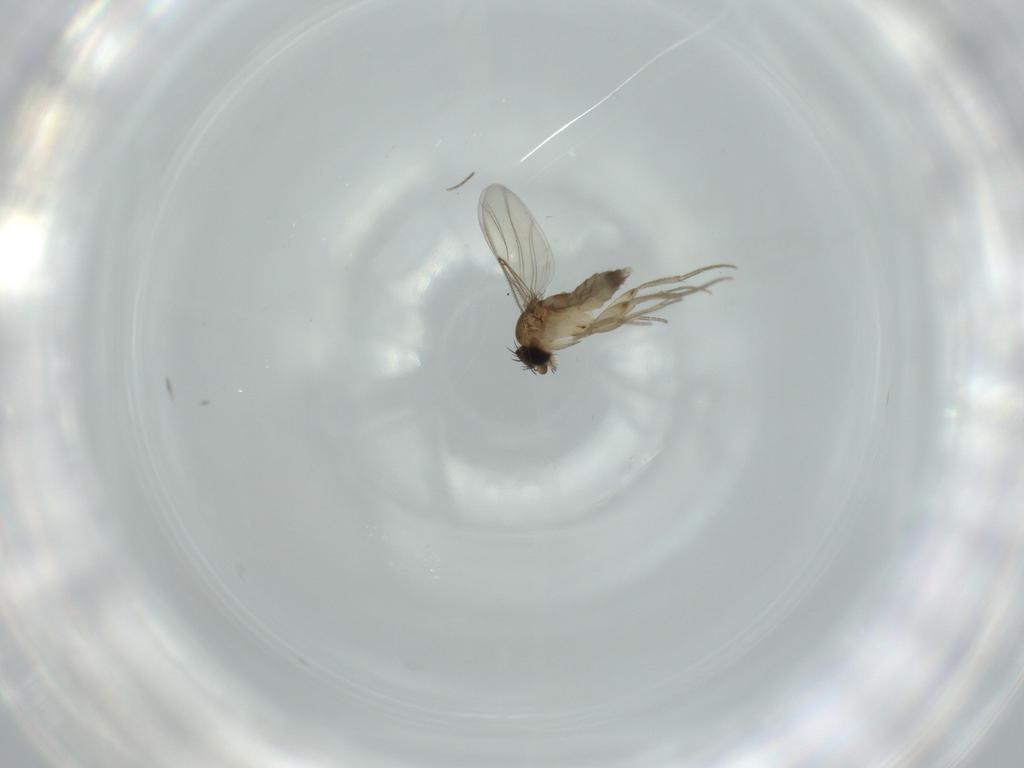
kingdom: Animalia
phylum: Arthropoda
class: Insecta
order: Diptera
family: Phoridae
